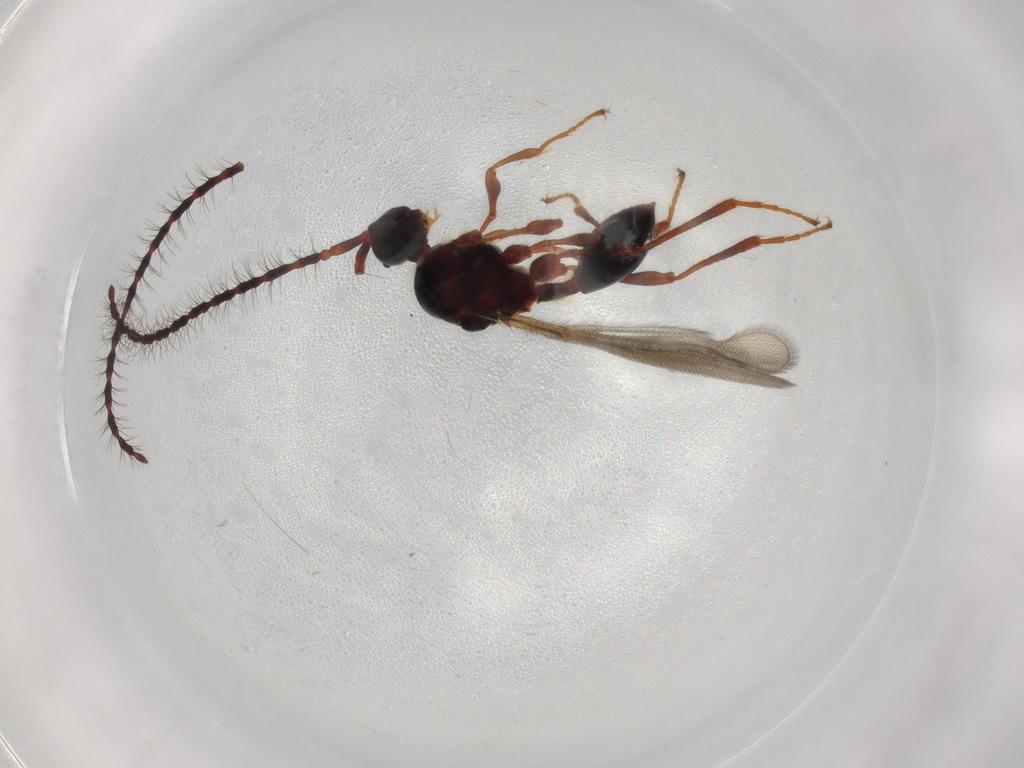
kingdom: Animalia
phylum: Arthropoda
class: Insecta
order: Hymenoptera
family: Diapriidae
